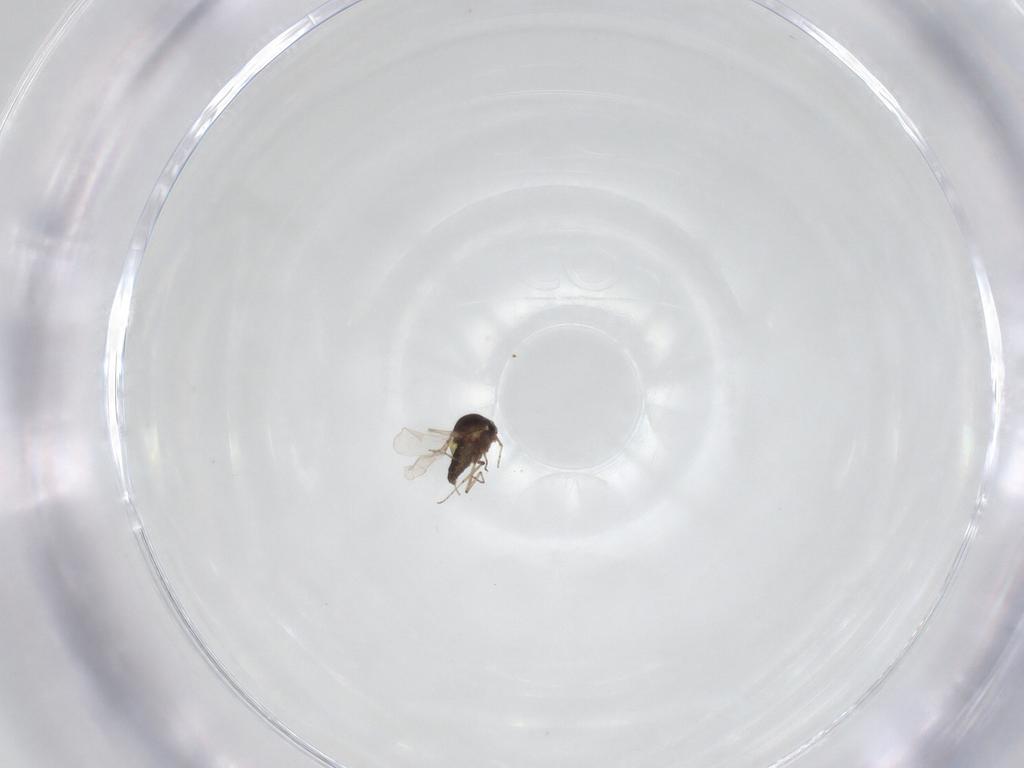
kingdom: Animalia
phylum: Arthropoda
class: Insecta
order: Diptera
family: Ceratopogonidae
